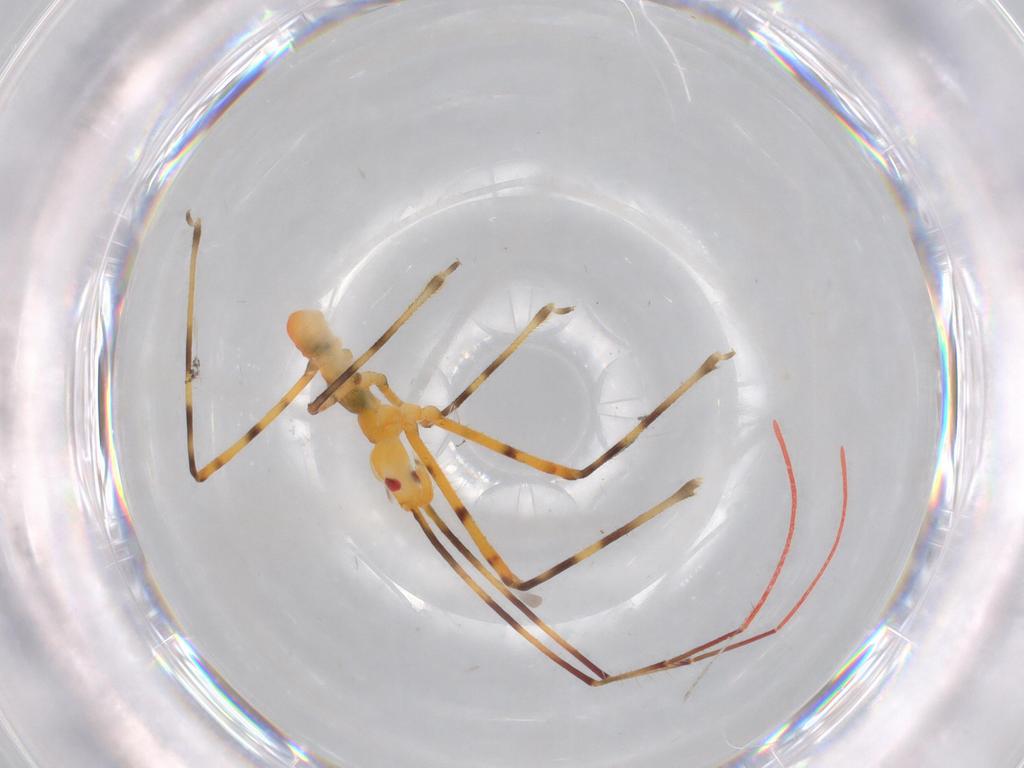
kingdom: Animalia
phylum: Arthropoda
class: Insecta
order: Hemiptera
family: Reduviidae
